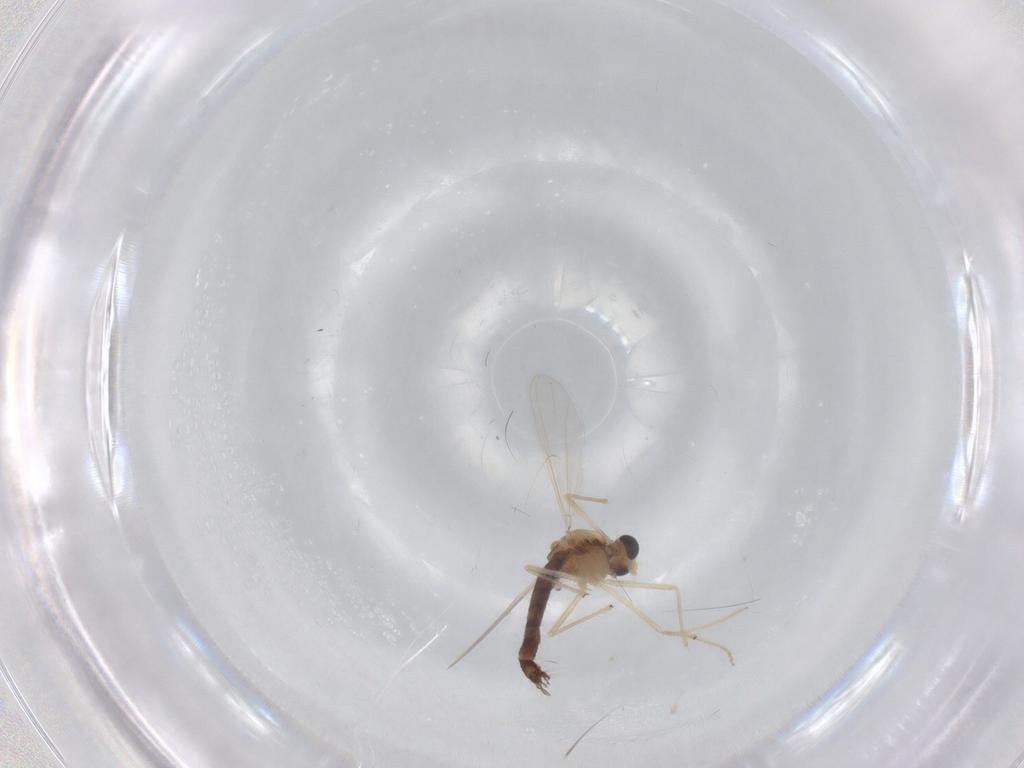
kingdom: Animalia
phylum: Arthropoda
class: Insecta
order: Diptera
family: Chironomidae
